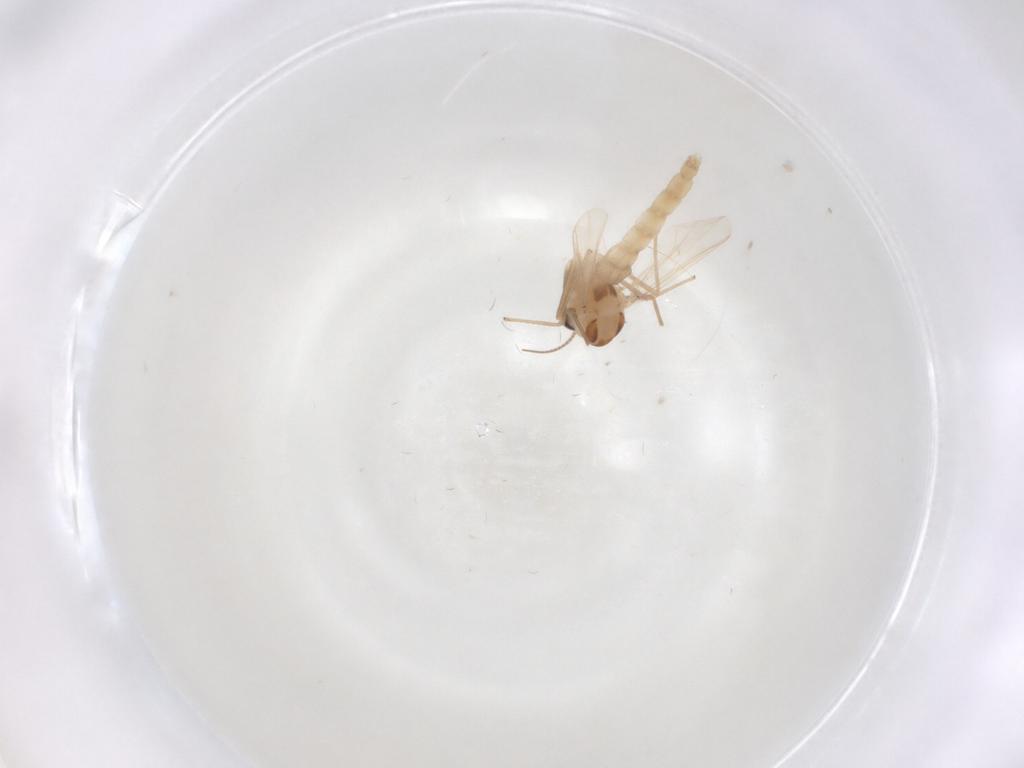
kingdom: Animalia
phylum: Arthropoda
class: Insecta
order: Diptera
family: Chironomidae
